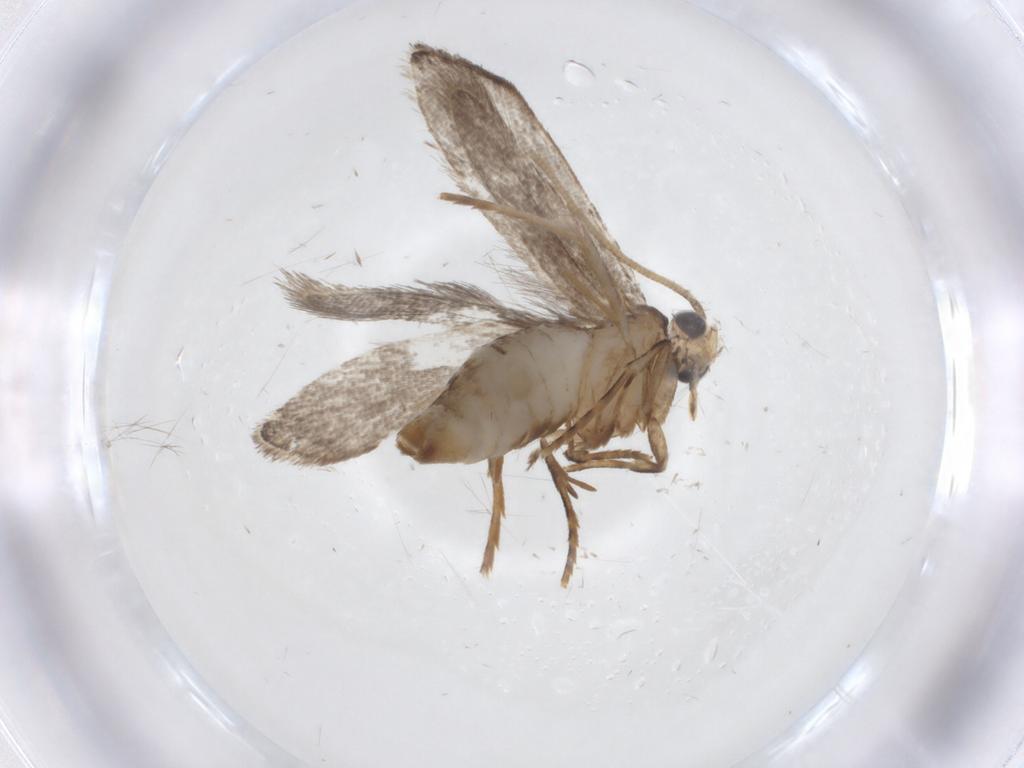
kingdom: Animalia
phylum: Arthropoda
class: Insecta
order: Lepidoptera
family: Tineidae
